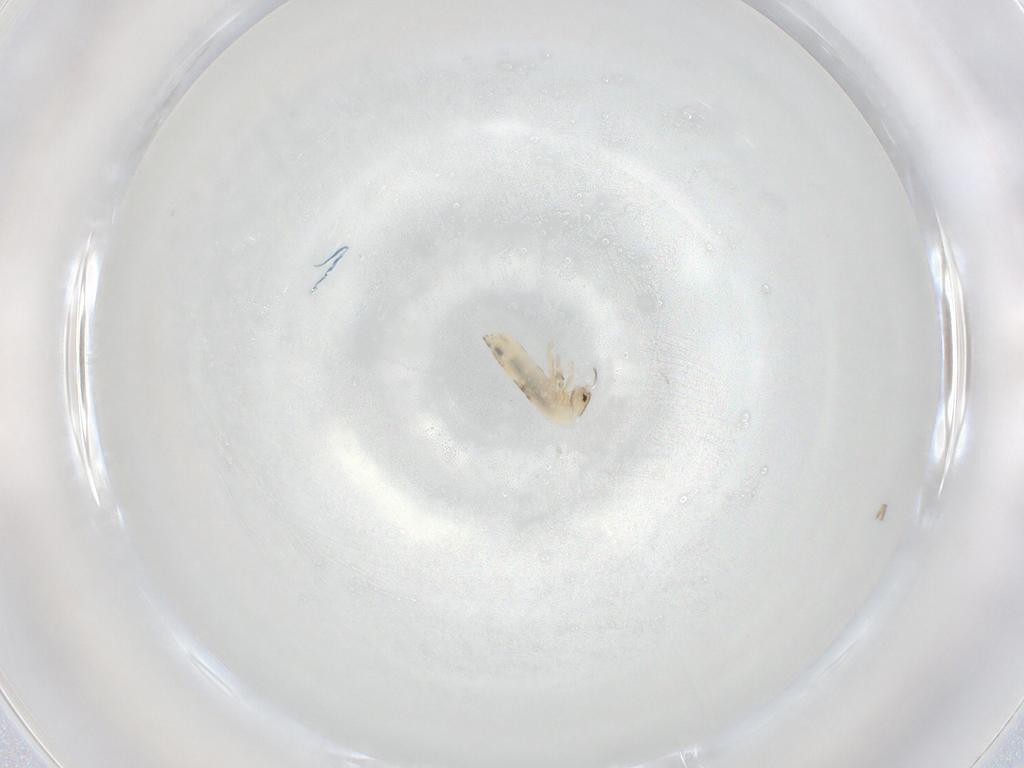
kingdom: Animalia
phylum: Arthropoda
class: Collembola
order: Entomobryomorpha
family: Entomobryidae
